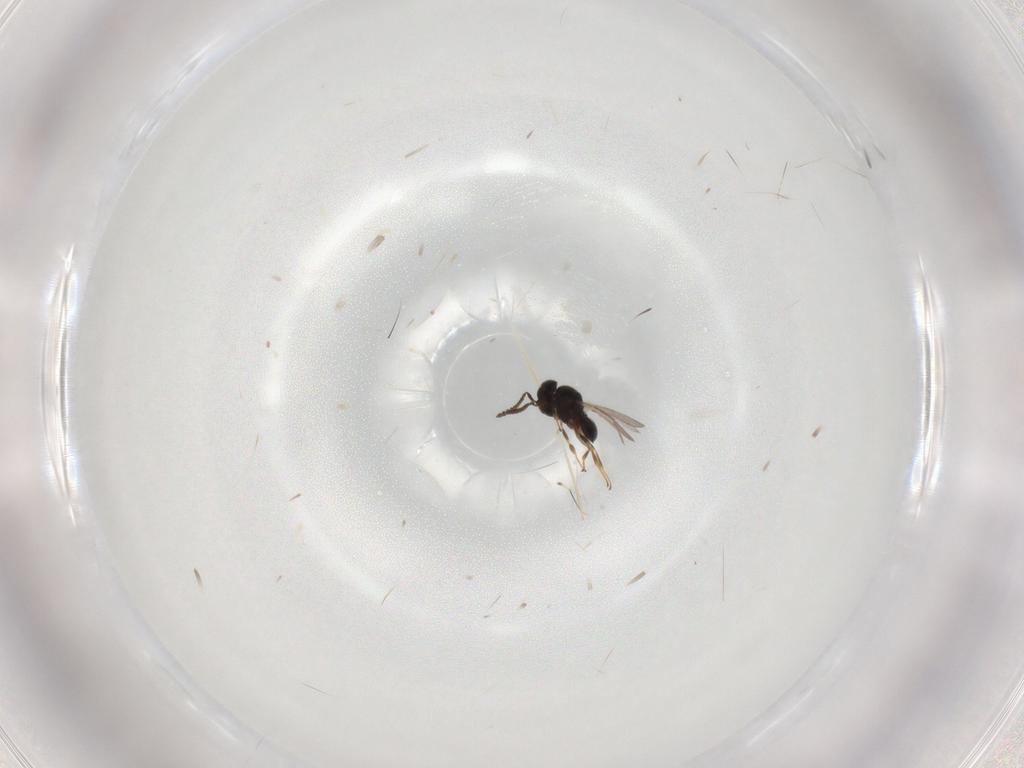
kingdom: Animalia
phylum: Arthropoda
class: Insecta
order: Hymenoptera
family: Scelionidae
